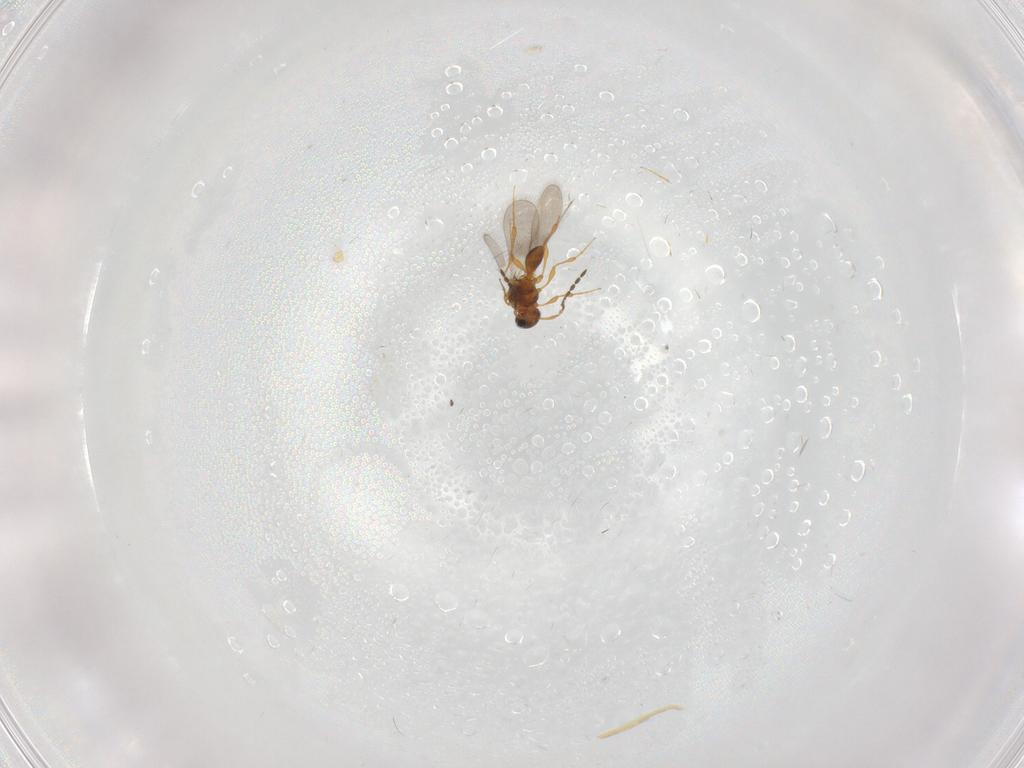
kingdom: Animalia
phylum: Arthropoda
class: Insecta
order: Hymenoptera
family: Platygastridae
